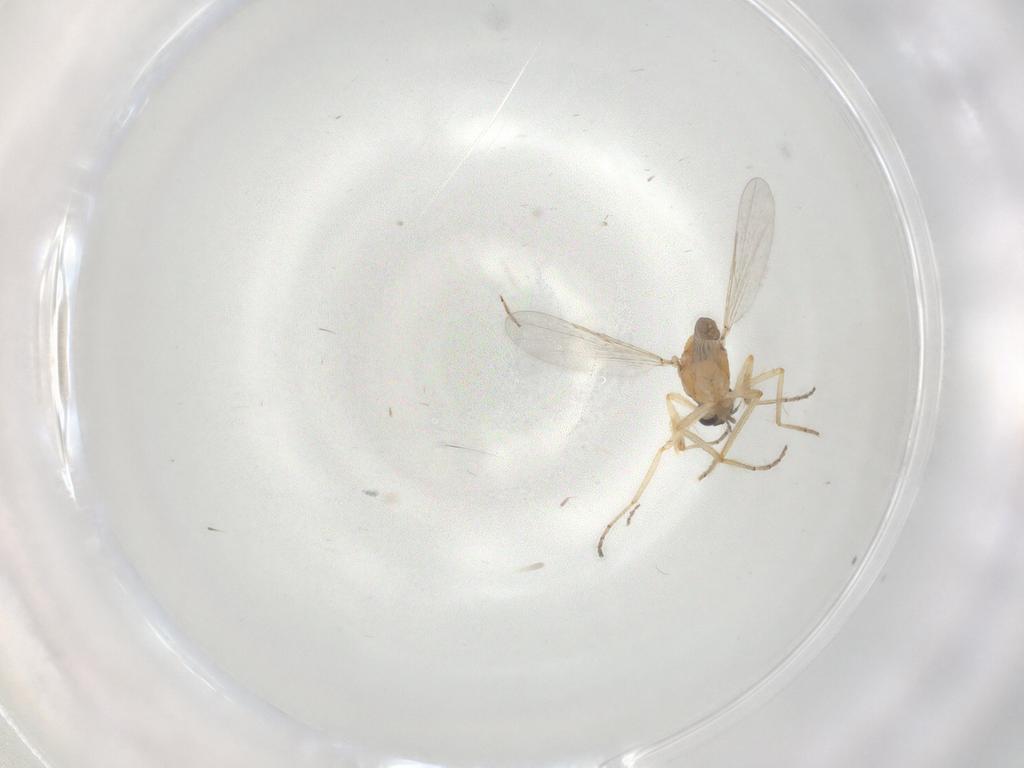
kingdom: Animalia
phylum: Arthropoda
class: Insecta
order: Diptera
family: Ceratopogonidae
